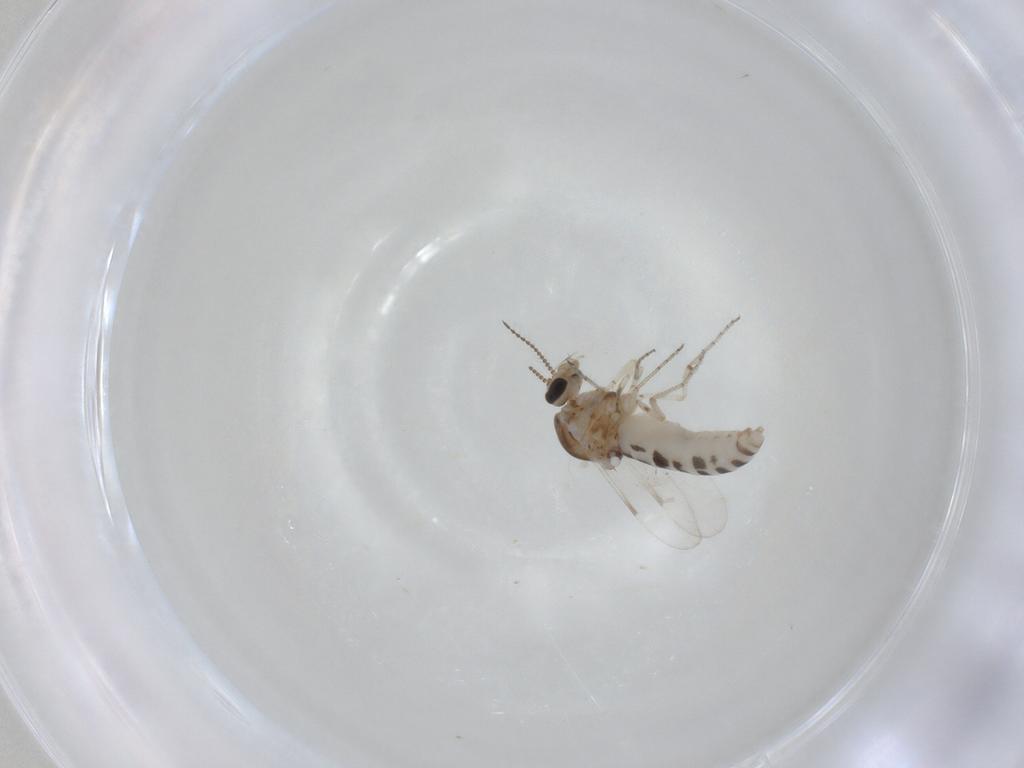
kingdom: Animalia
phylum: Arthropoda
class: Insecta
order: Diptera
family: Ceratopogonidae
